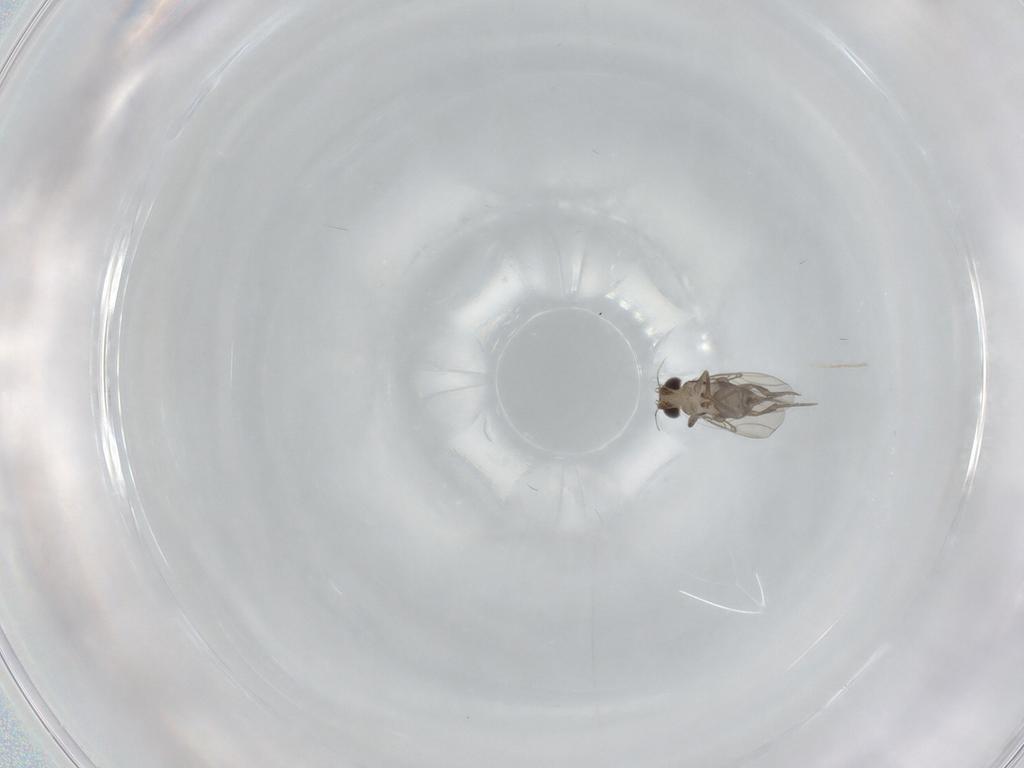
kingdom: Animalia
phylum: Arthropoda
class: Insecta
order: Diptera
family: Phoridae
